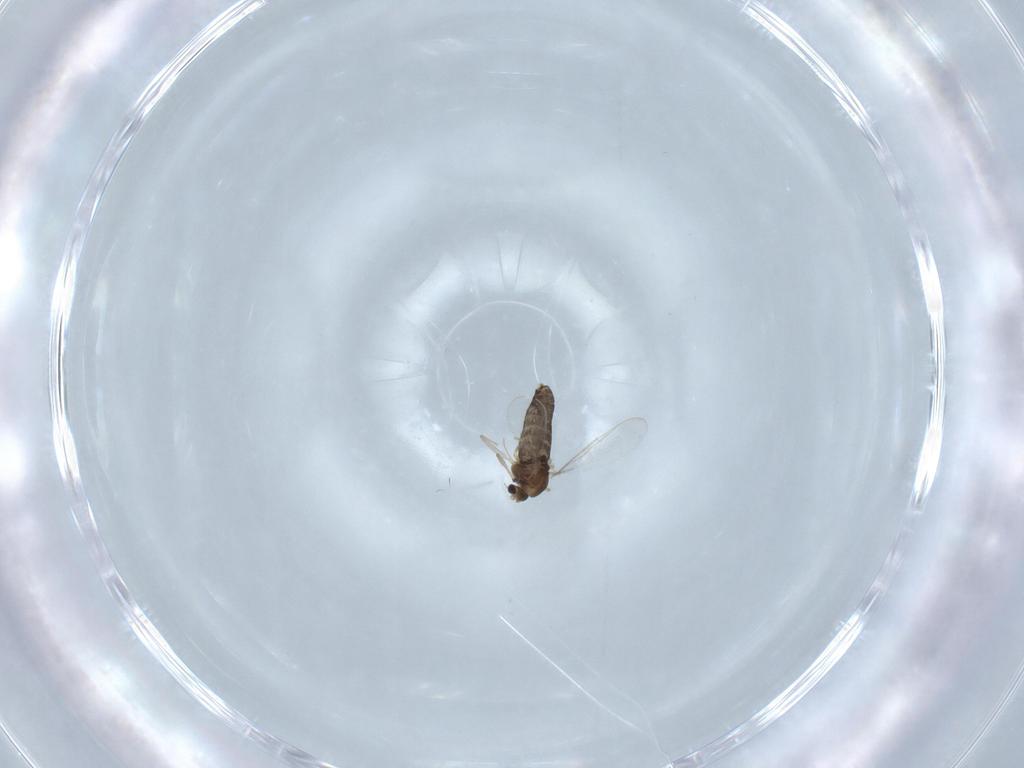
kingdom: Animalia
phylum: Arthropoda
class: Insecta
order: Diptera
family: Chironomidae
